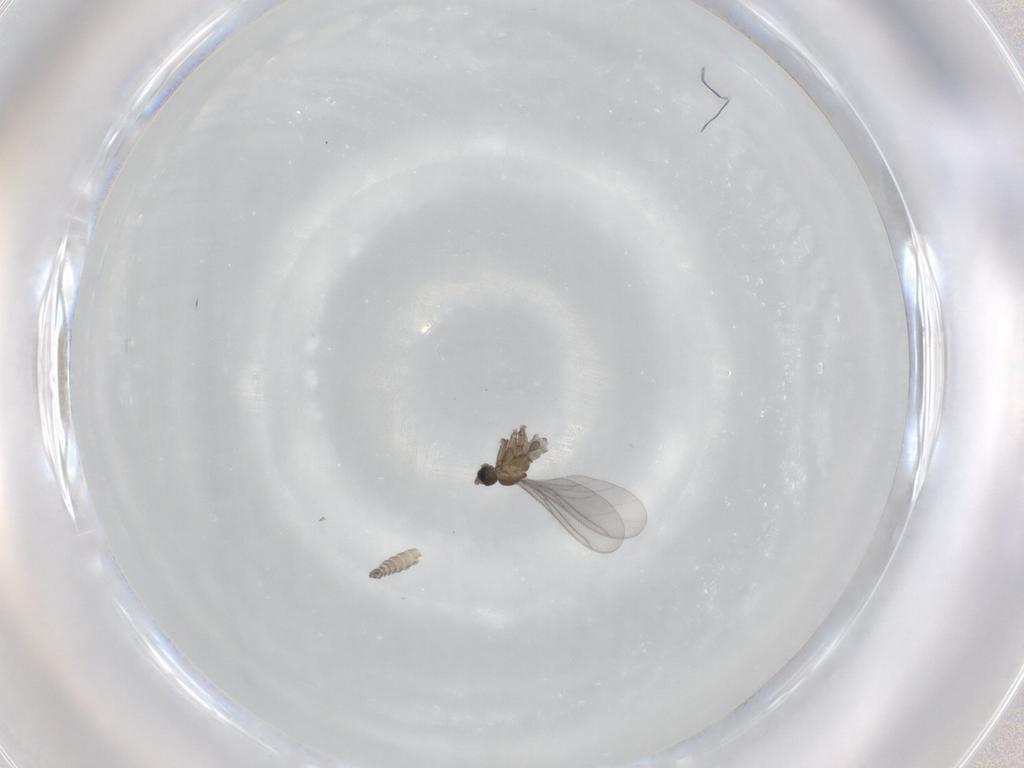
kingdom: Animalia
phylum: Arthropoda
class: Insecta
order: Diptera
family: Sciaridae
